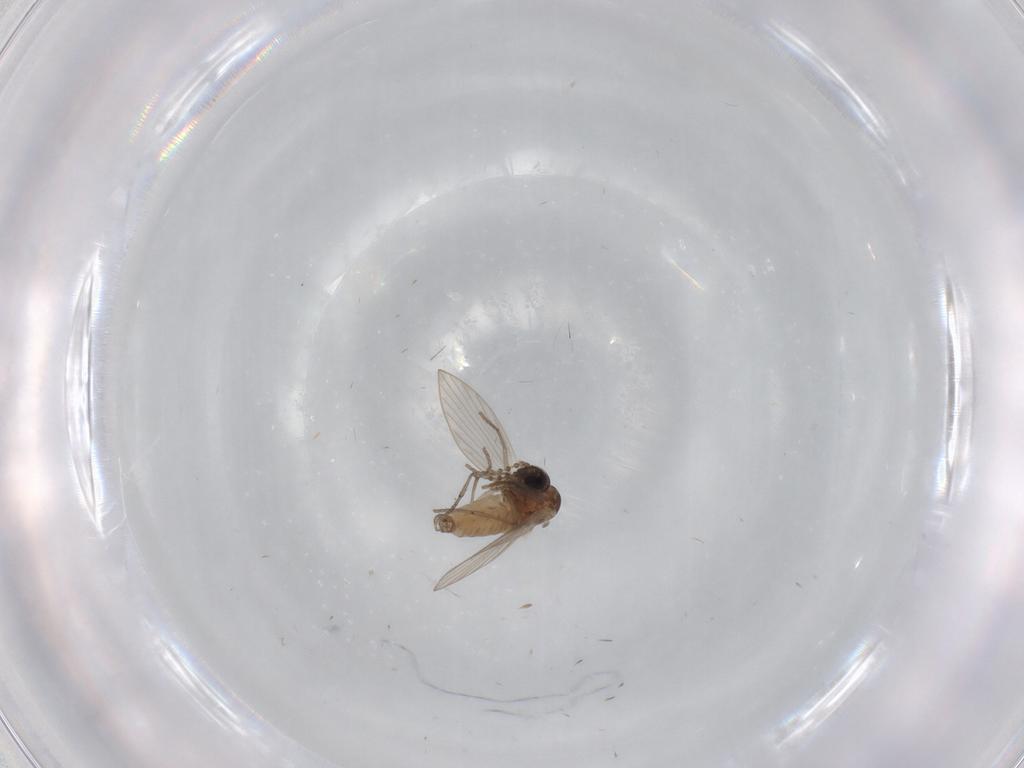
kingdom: Animalia
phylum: Arthropoda
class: Insecta
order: Diptera
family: Psychodidae
